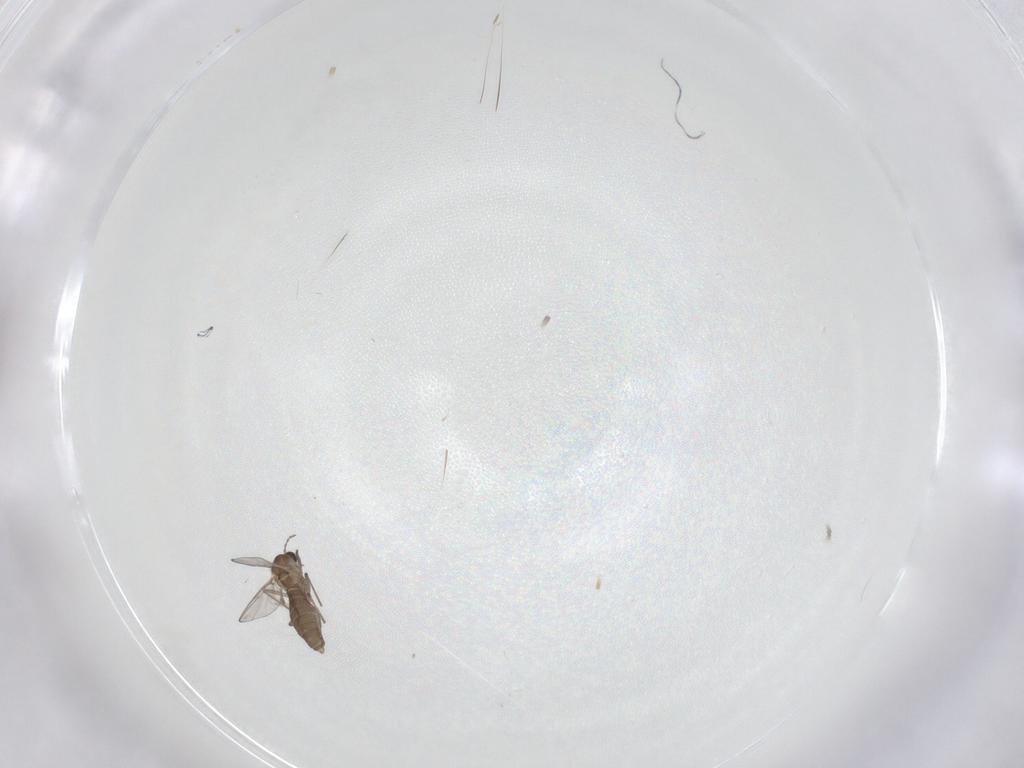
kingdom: Animalia
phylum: Arthropoda
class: Insecta
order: Diptera
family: Chironomidae
